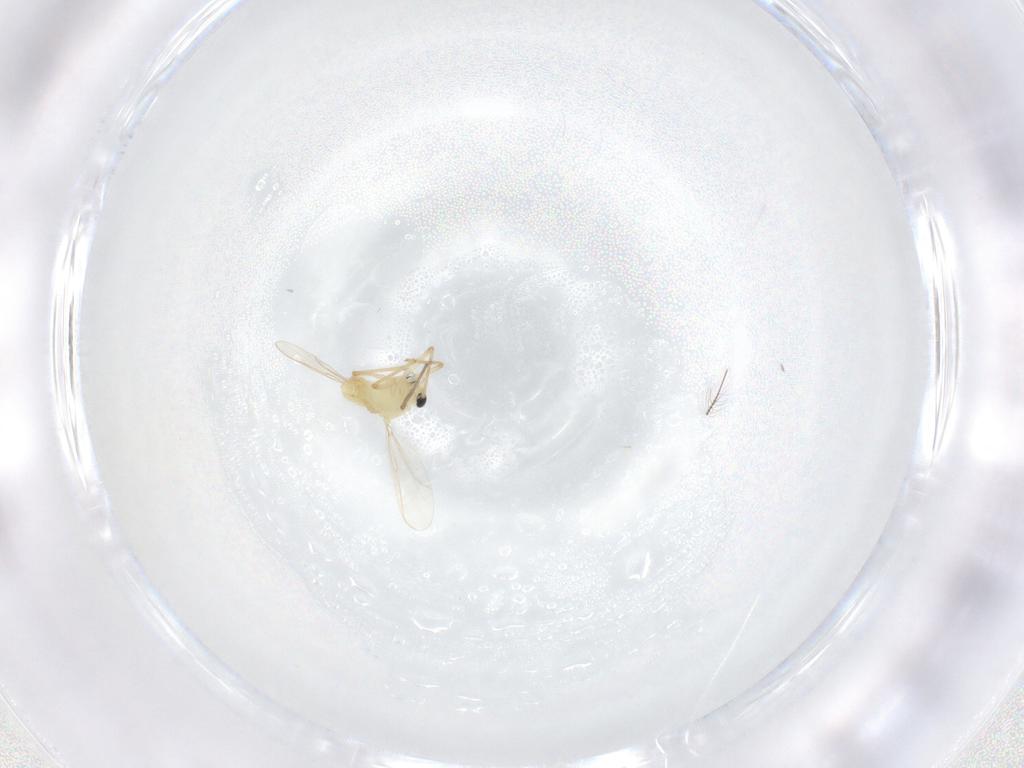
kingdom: Animalia
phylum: Arthropoda
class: Insecta
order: Diptera
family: Chironomidae
